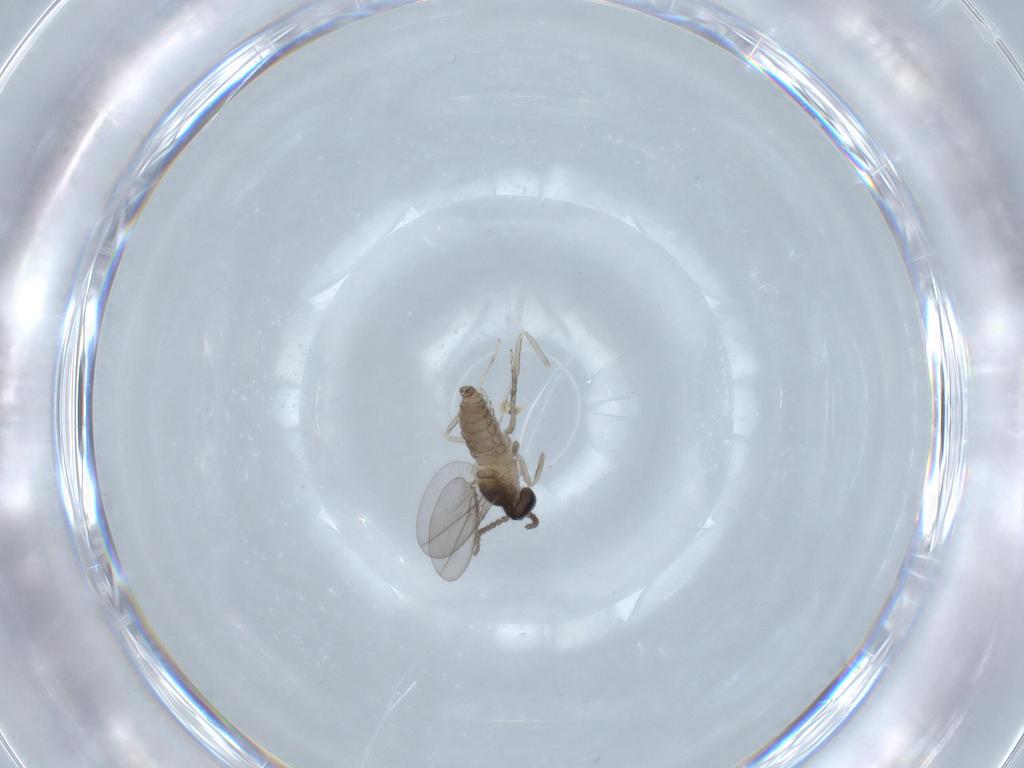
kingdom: Animalia
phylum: Arthropoda
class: Insecta
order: Diptera
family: Cecidomyiidae
